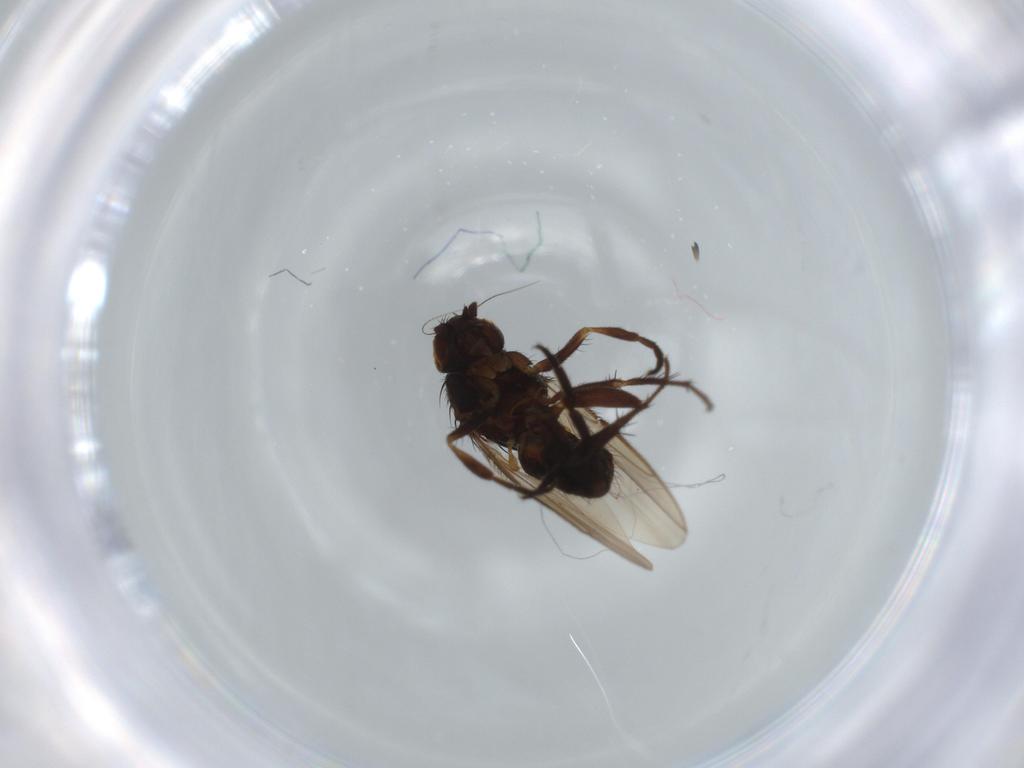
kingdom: Animalia
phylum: Arthropoda
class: Insecta
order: Diptera
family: Sphaeroceridae
